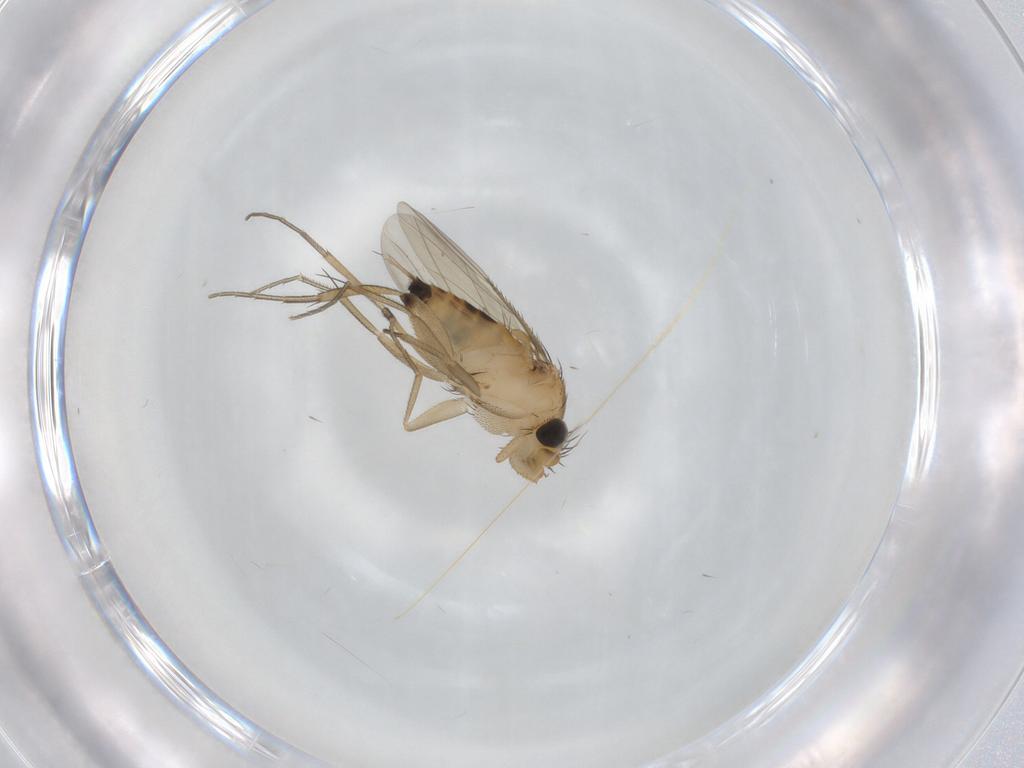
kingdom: Animalia
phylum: Arthropoda
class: Insecta
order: Diptera
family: Phoridae
